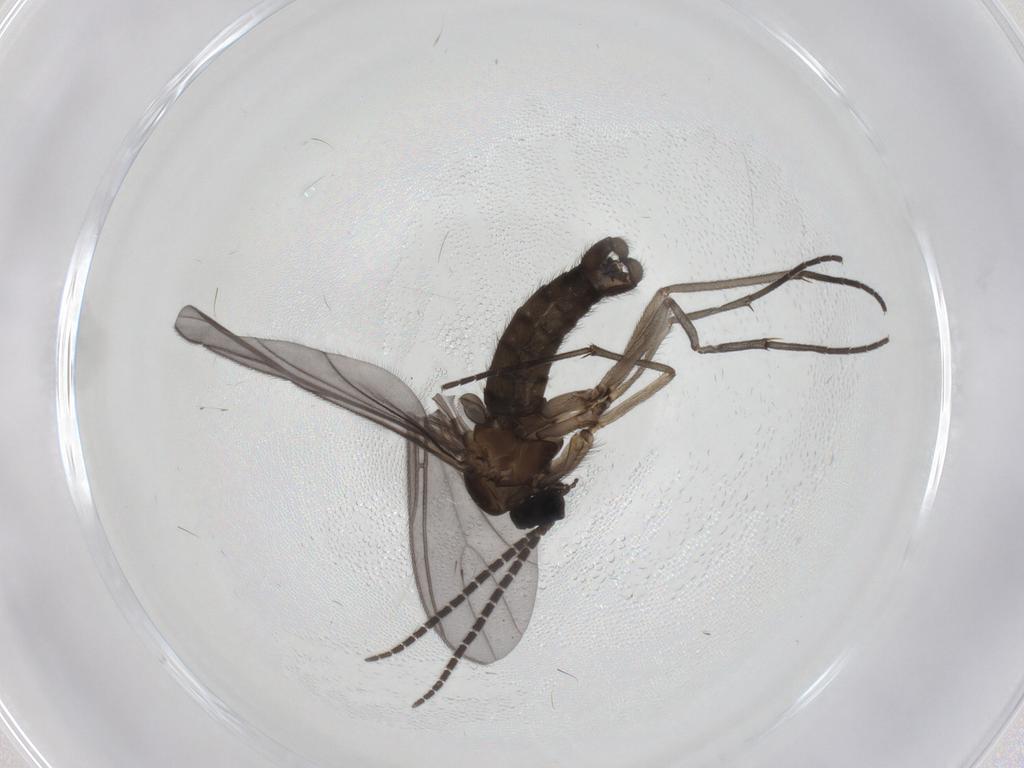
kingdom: Animalia
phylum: Arthropoda
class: Insecta
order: Diptera
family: Sciaridae
